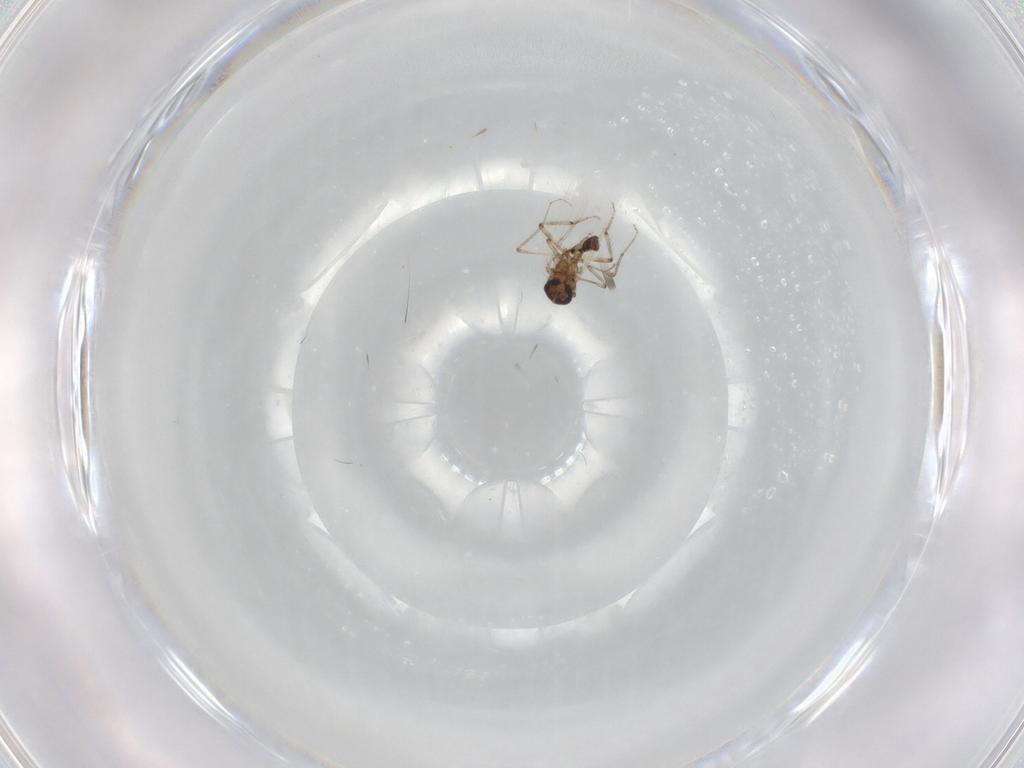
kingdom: Animalia
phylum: Arthropoda
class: Insecta
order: Diptera
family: Ceratopogonidae
